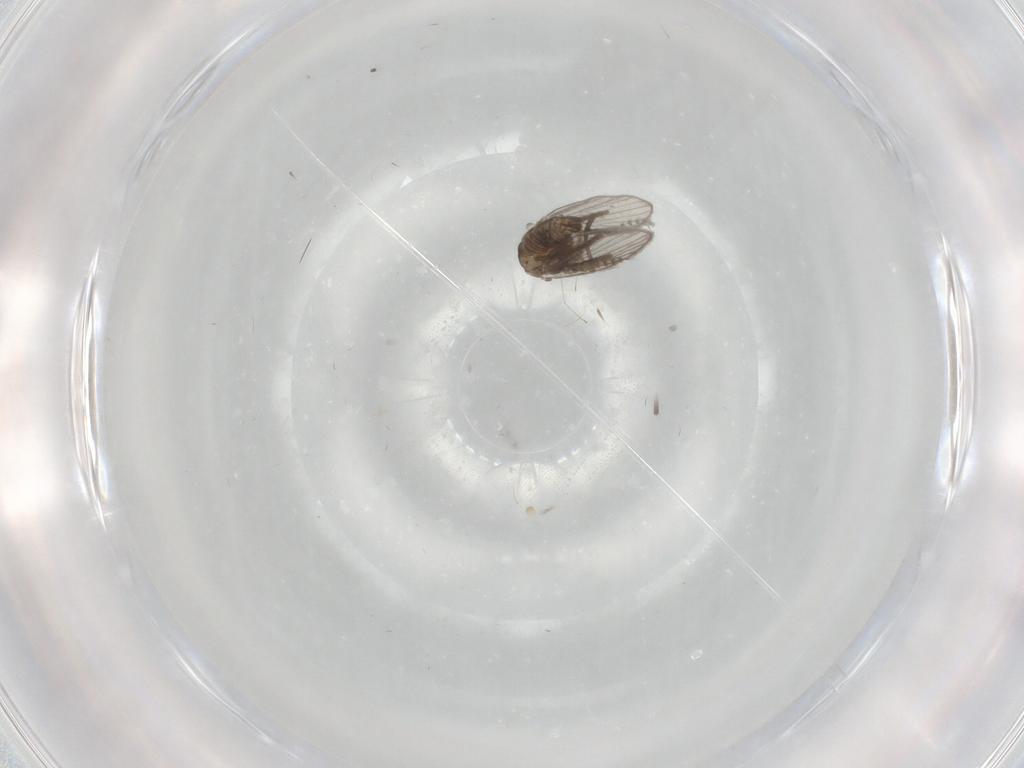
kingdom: Animalia
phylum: Arthropoda
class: Insecta
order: Diptera
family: Psychodidae
